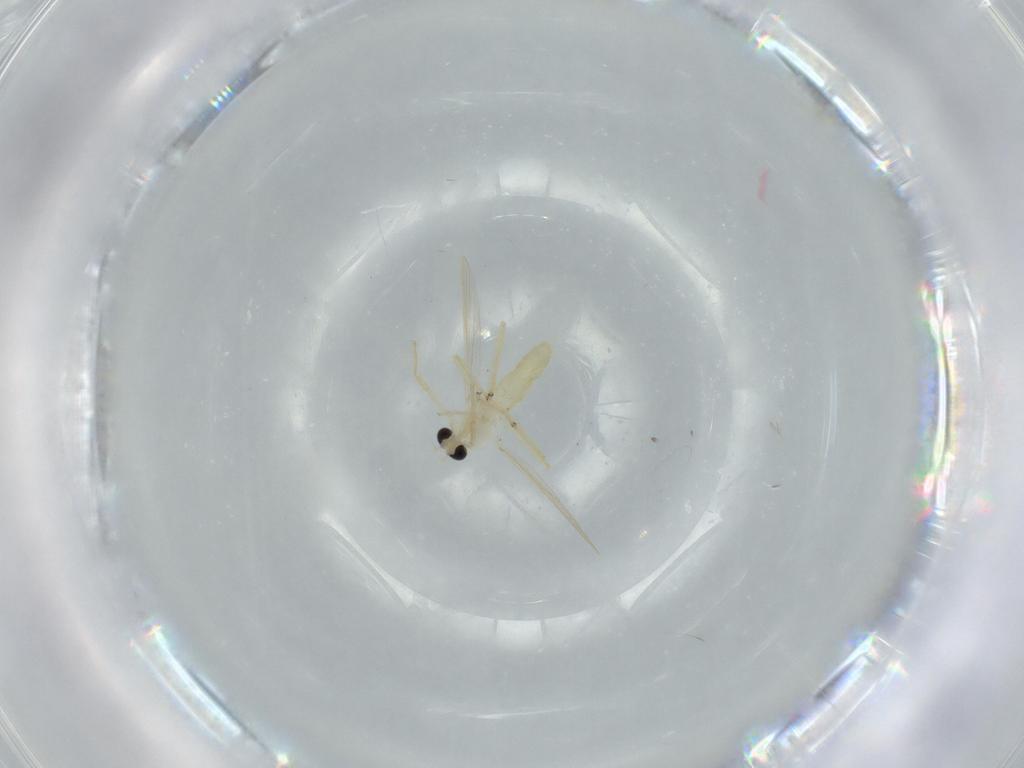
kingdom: Animalia
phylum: Arthropoda
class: Insecta
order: Diptera
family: Chironomidae
